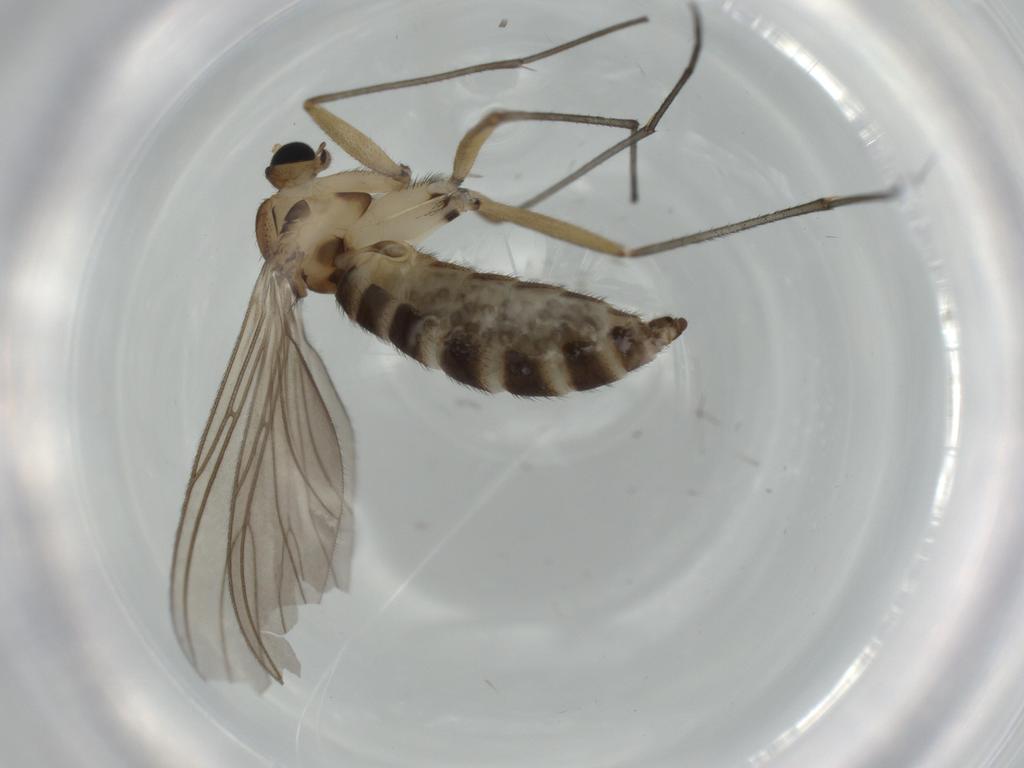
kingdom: Animalia
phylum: Arthropoda
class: Insecta
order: Diptera
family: Sciaridae
